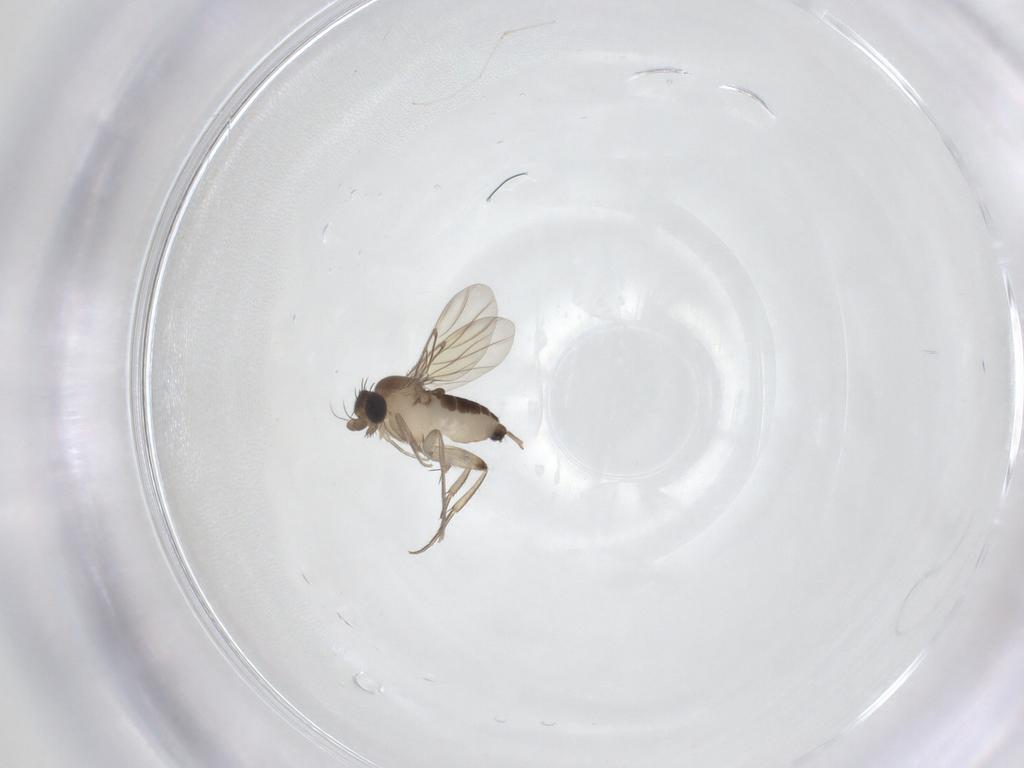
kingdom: Animalia
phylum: Arthropoda
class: Insecta
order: Diptera
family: Phoridae
